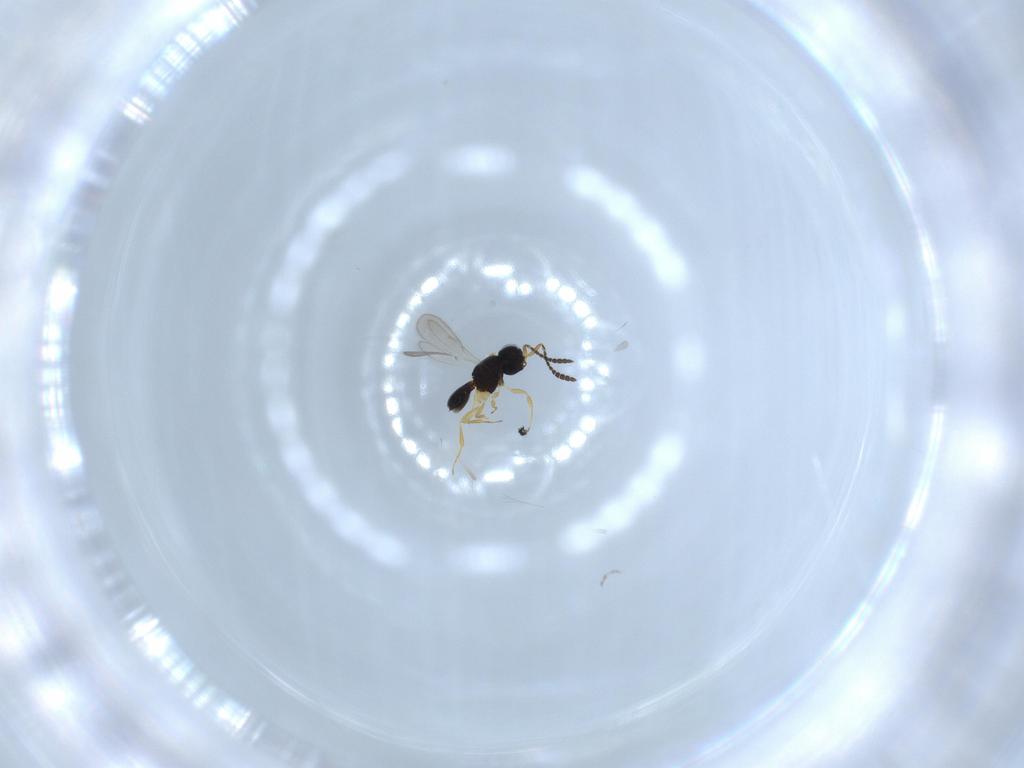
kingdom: Animalia
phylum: Arthropoda
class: Insecta
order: Hymenoptera
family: Scelionidae
